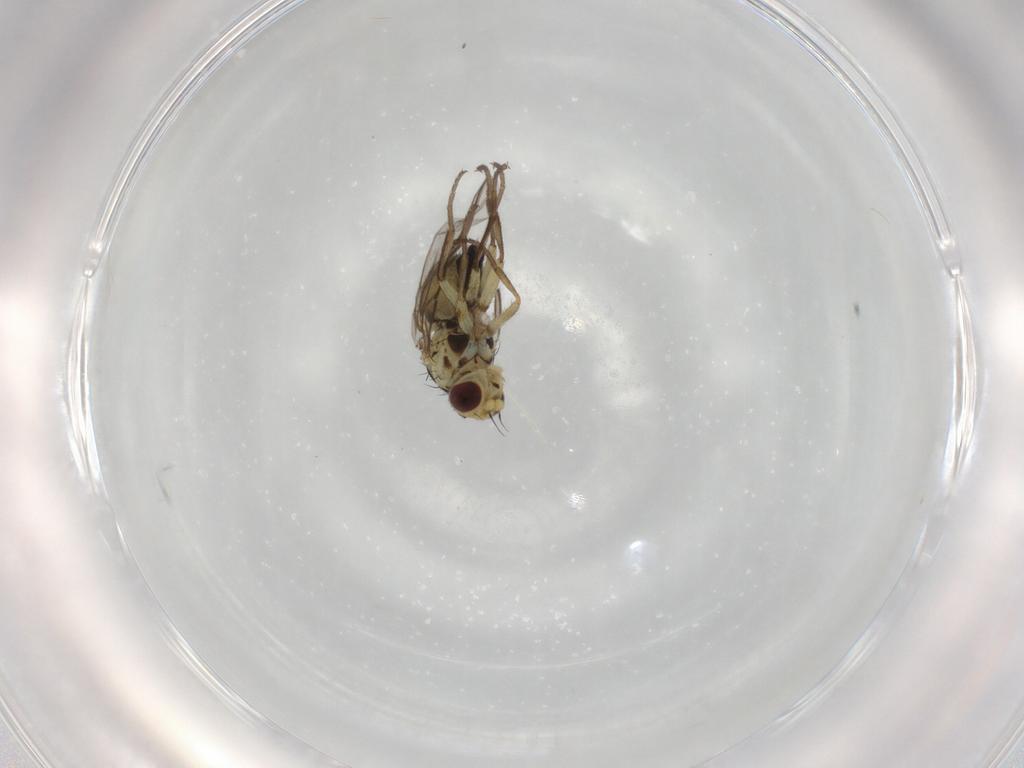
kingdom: Animalia
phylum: Arthropoda
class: Insecta
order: Diptera
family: Agromyzidae
